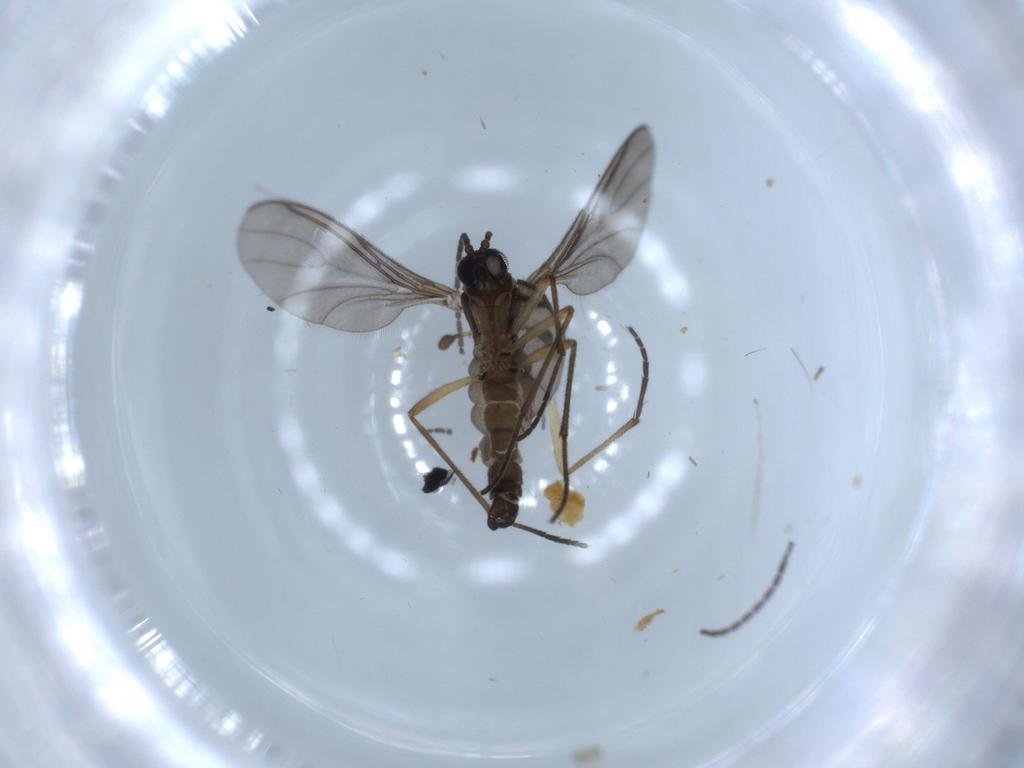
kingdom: Animalia
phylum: Arthropoda
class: Insecta
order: Diptera
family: Sciaridae
